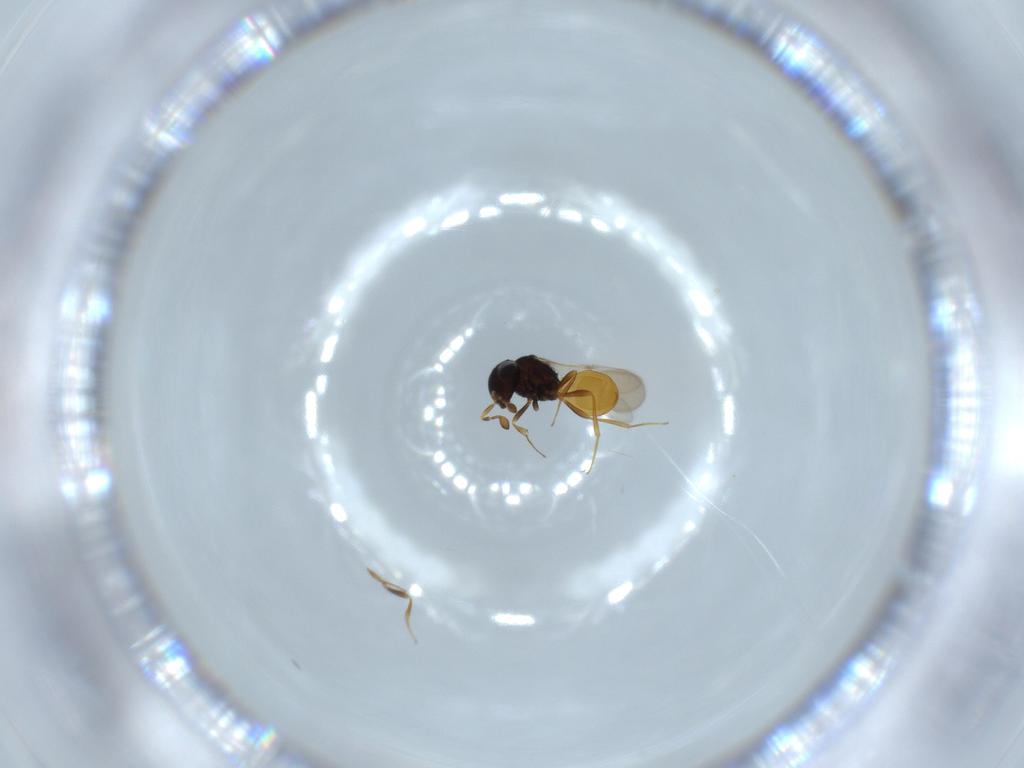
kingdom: Animalia
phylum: Arthropoda
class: Insecta
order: Hymenoptera
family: Scelionidae
